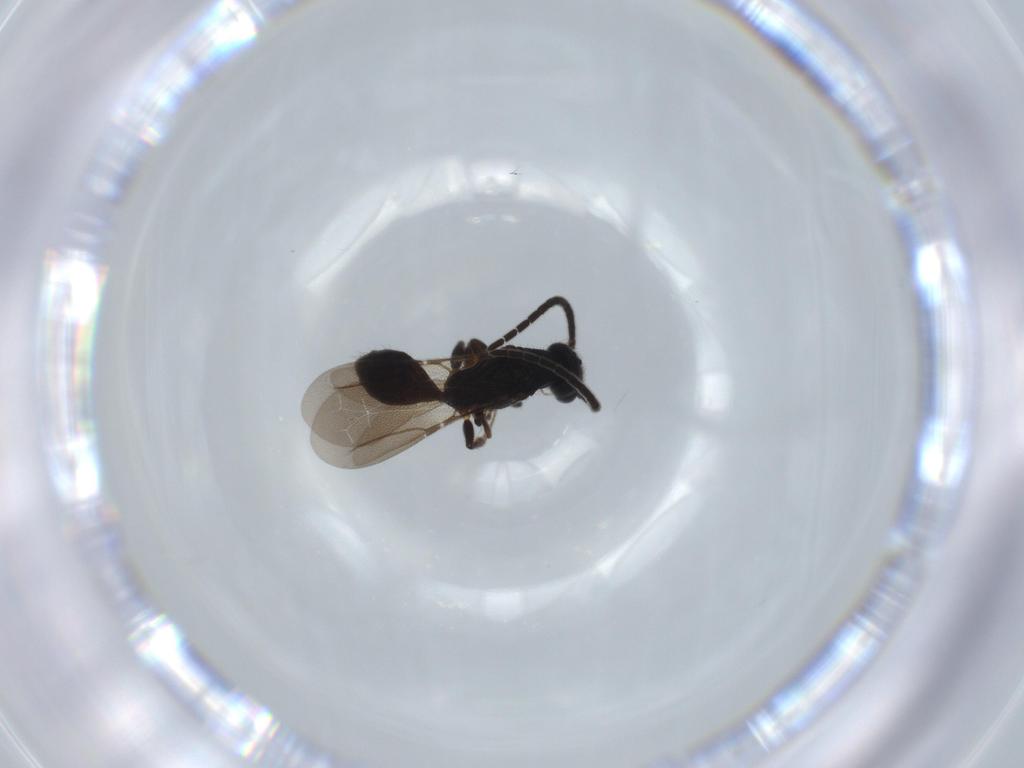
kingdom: Animalia
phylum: Arthropoda
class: Insecta
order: Hymenoptera
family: Bethylidae
